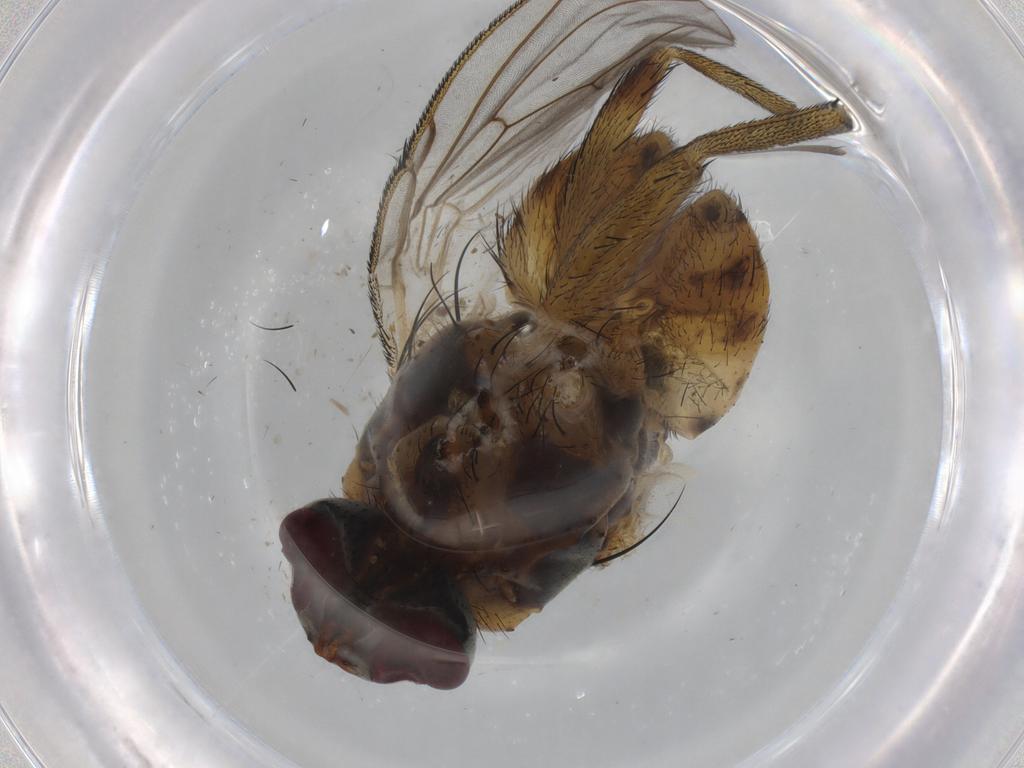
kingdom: Animalia
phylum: Arthropoda
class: Insecta
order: Diptera
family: Muscidae
